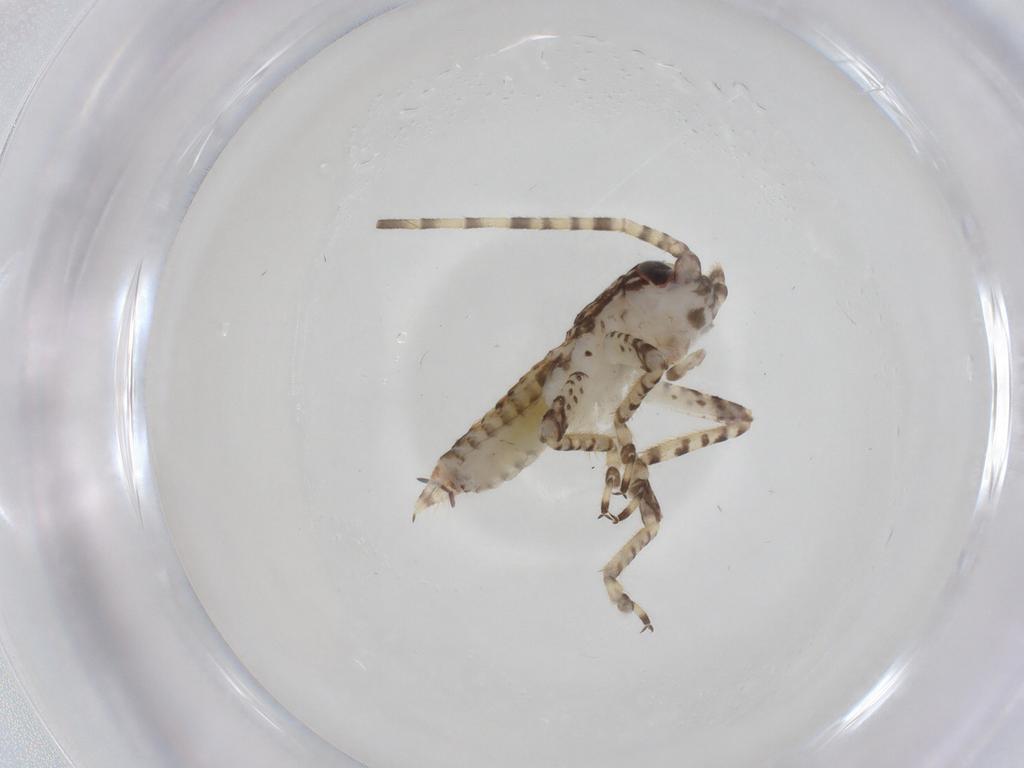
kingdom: Animalia
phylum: Arthropoda
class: Insecta
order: Orthoptera
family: Gryllidae
